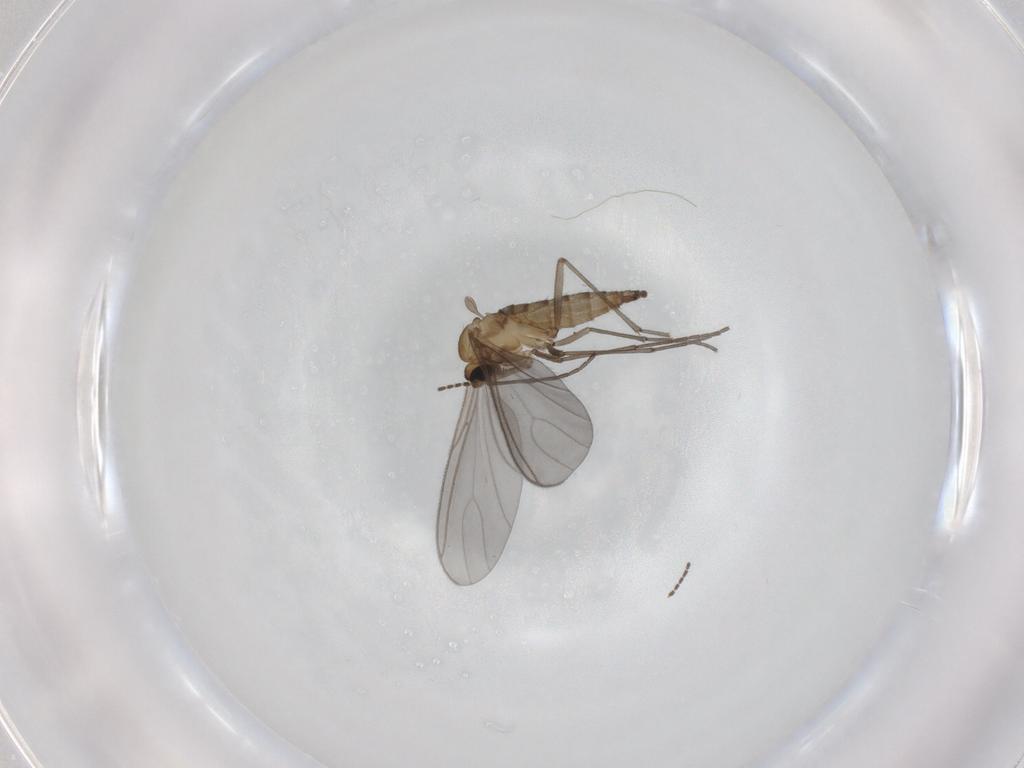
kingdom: Animalia
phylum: Arthropoda
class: Insecta
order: Diptera
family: Sciaridae
